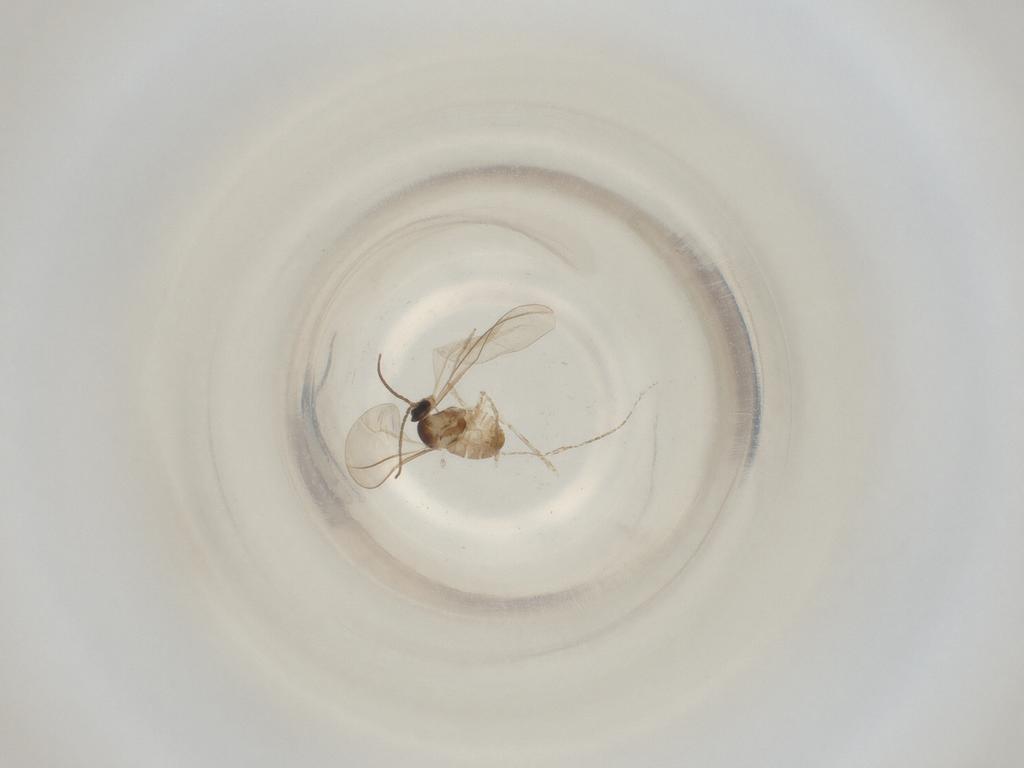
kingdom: Animalia
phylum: Arthropoda
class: Insecta
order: Diptera
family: Cecidomyiidae
